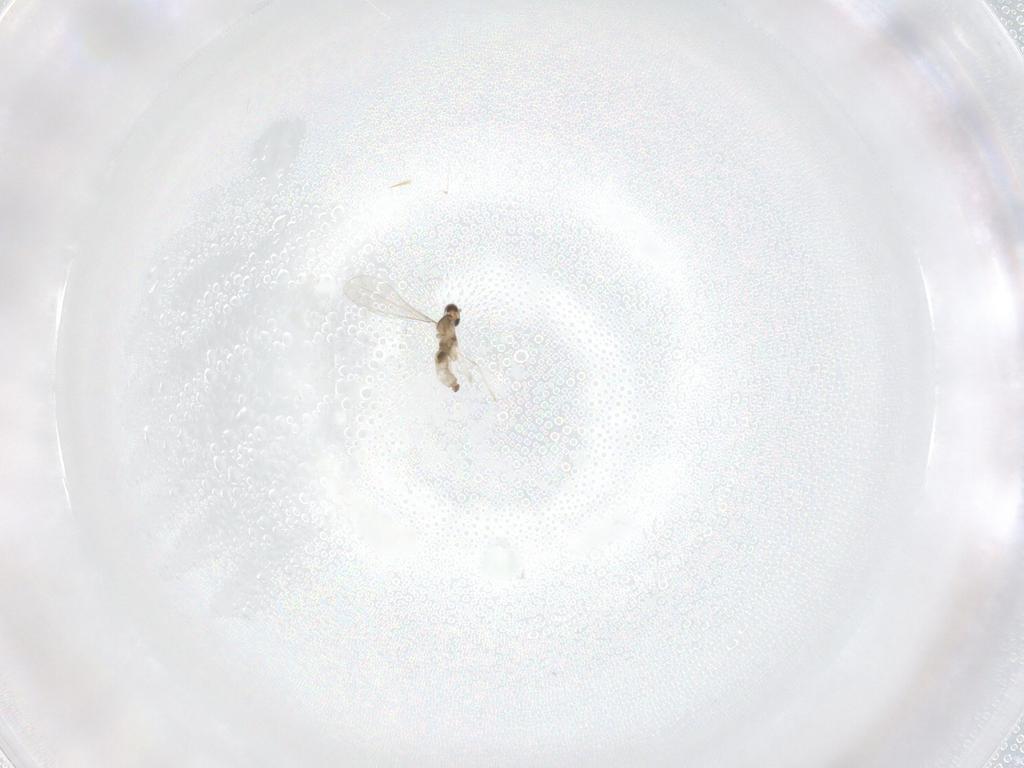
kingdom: Animalia
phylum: Arthropoda
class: Insecta
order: Diptera
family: Cecidomyiidae
